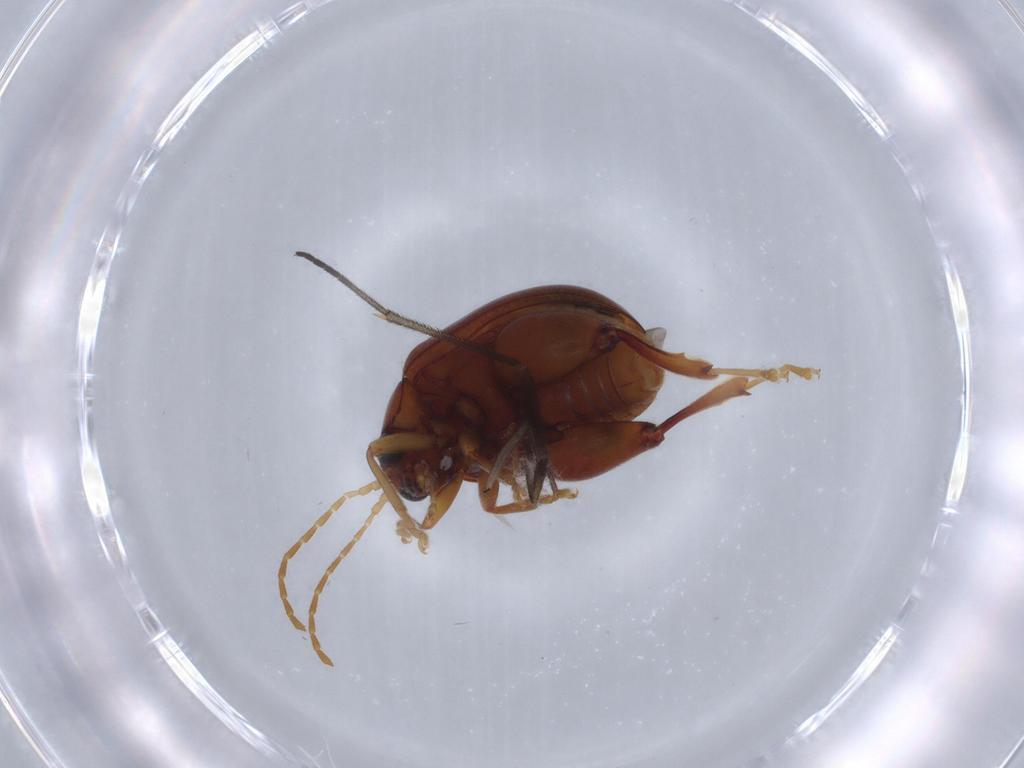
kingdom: Animalia
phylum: Arthropoda
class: Insecta
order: Coleoptera
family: Chrysomelidae
